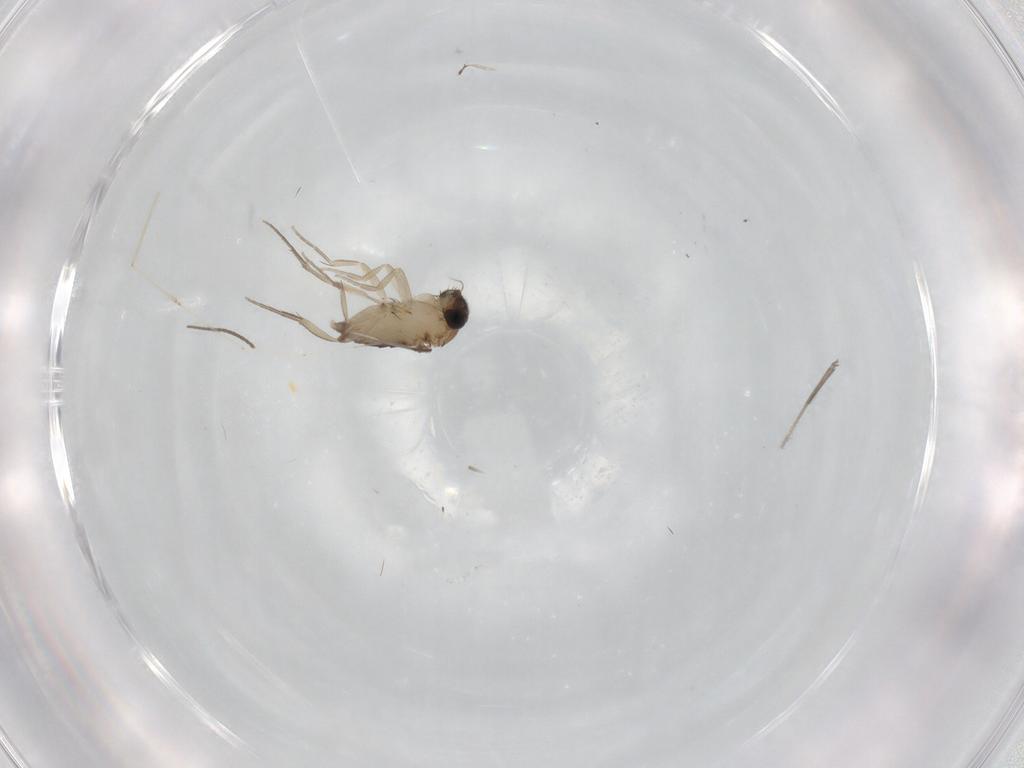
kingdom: Animalia
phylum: Arthropoda
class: Insecta
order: Diptera
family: Phoridae
